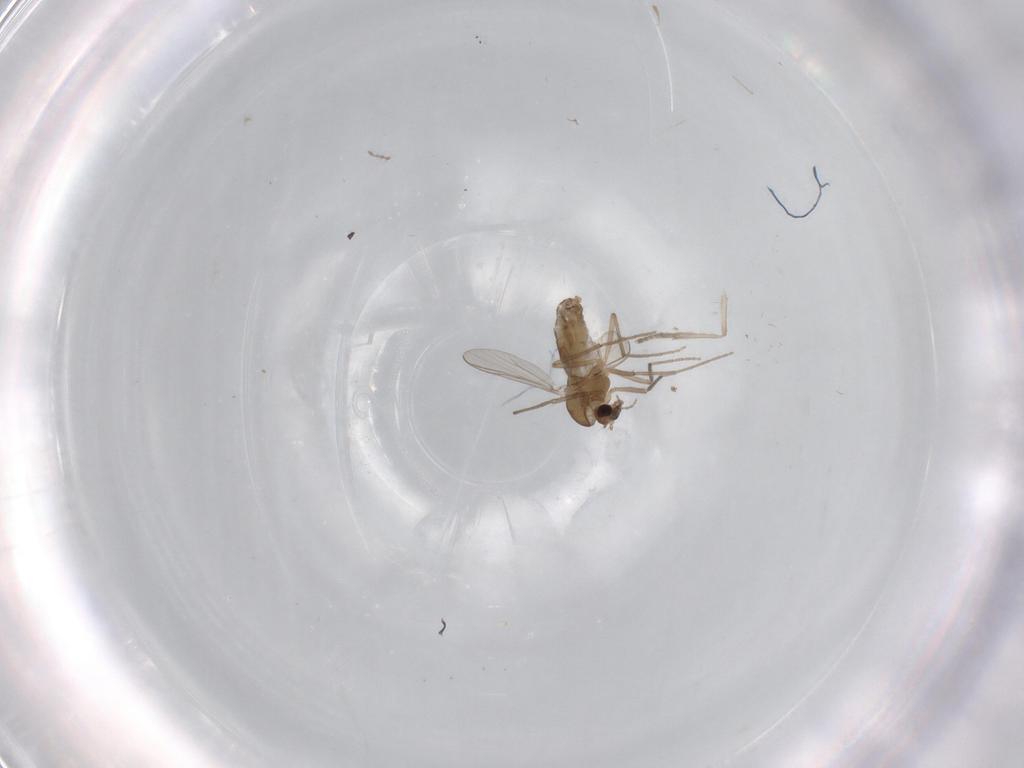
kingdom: Animalia
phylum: Arthropoda
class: Insecta
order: Diptera
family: Chironomidae
